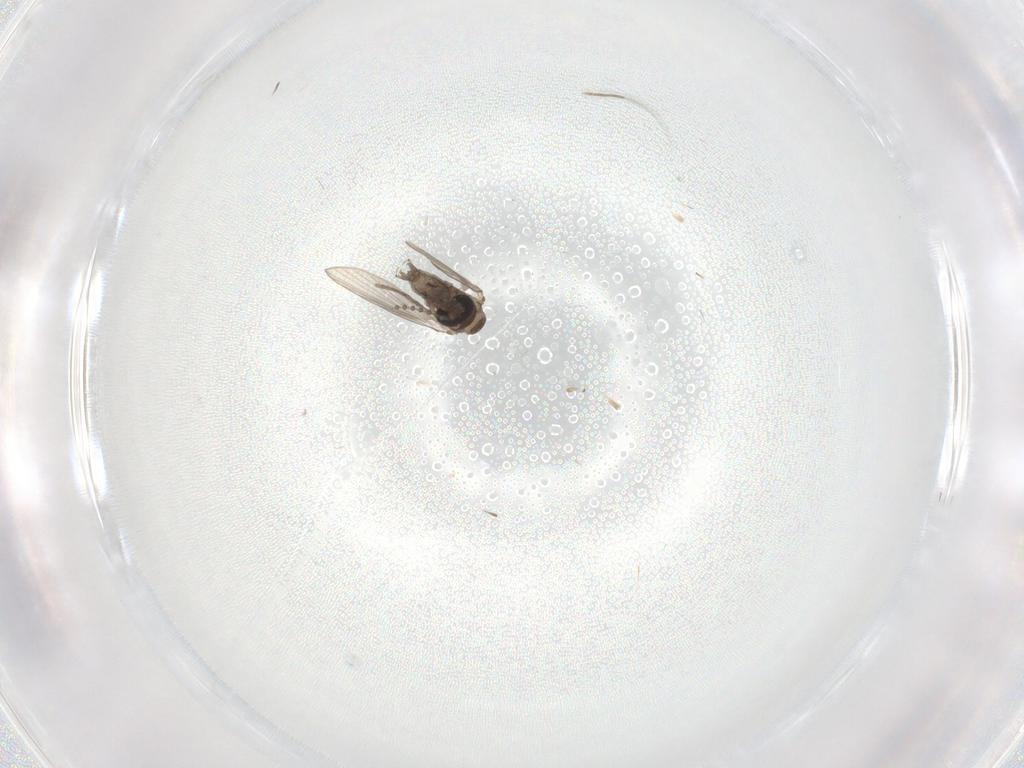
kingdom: Animalia
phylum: Arthropoda
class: Insecta
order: Diptera
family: Psychodidae
